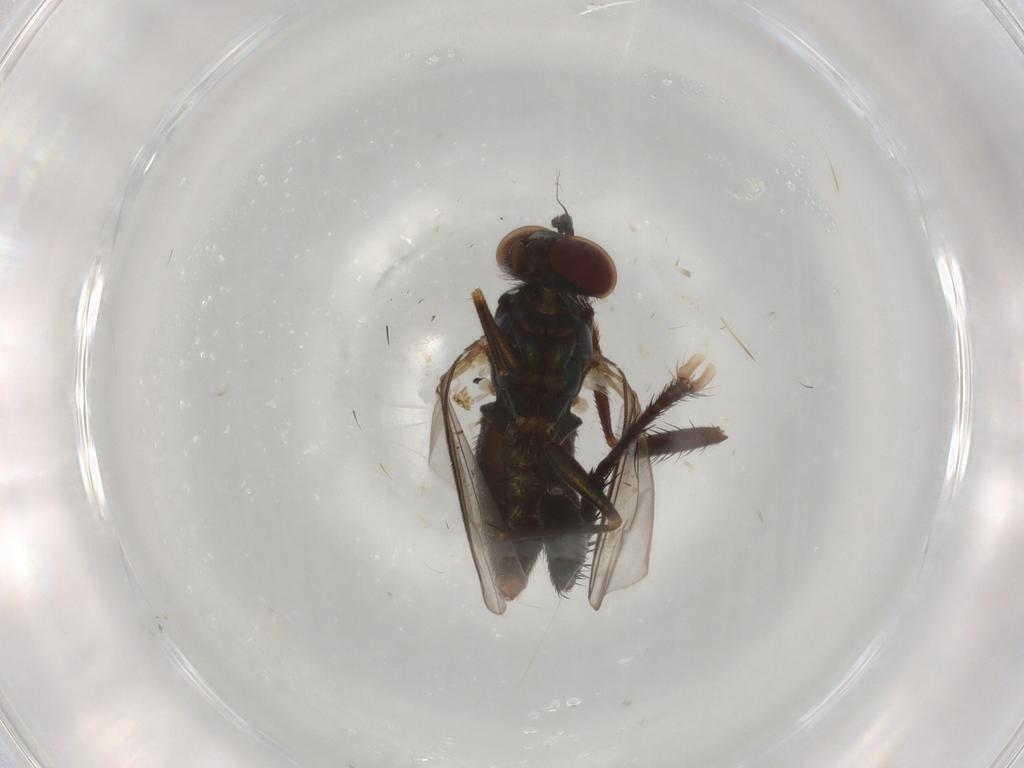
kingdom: Animalia
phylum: Arthropoda
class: Insecta
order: Diptera
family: Dolichopodidae
